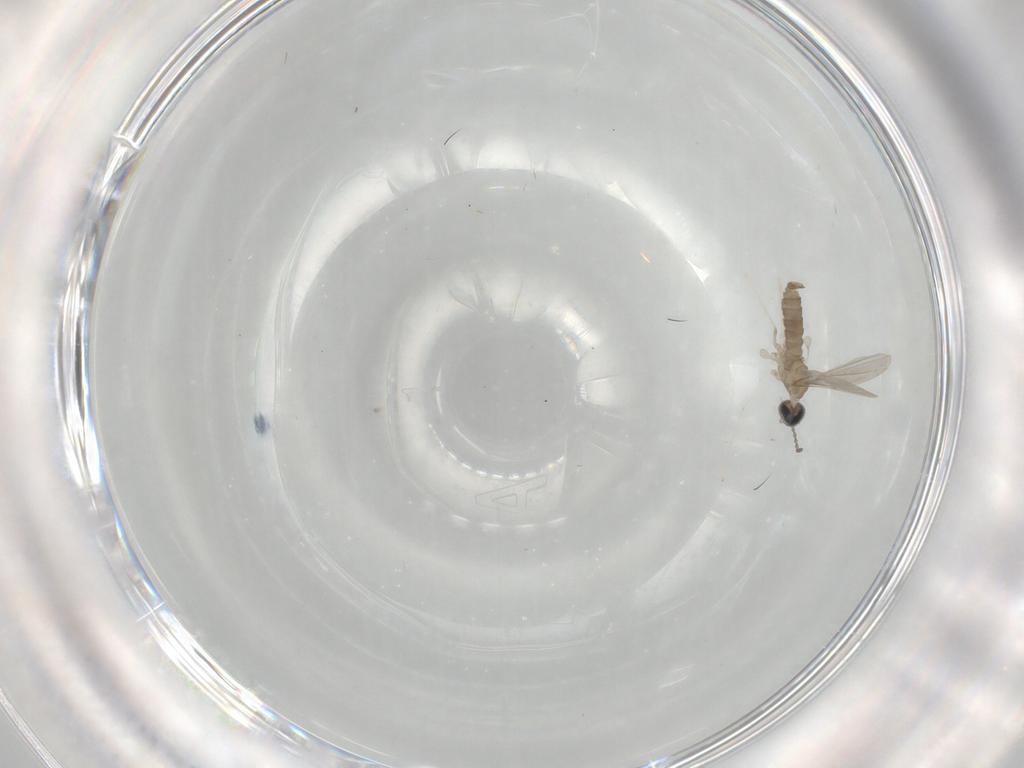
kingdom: Animalia
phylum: Arthropoda
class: Insecta
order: Diptera
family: Cecidomyiidae
